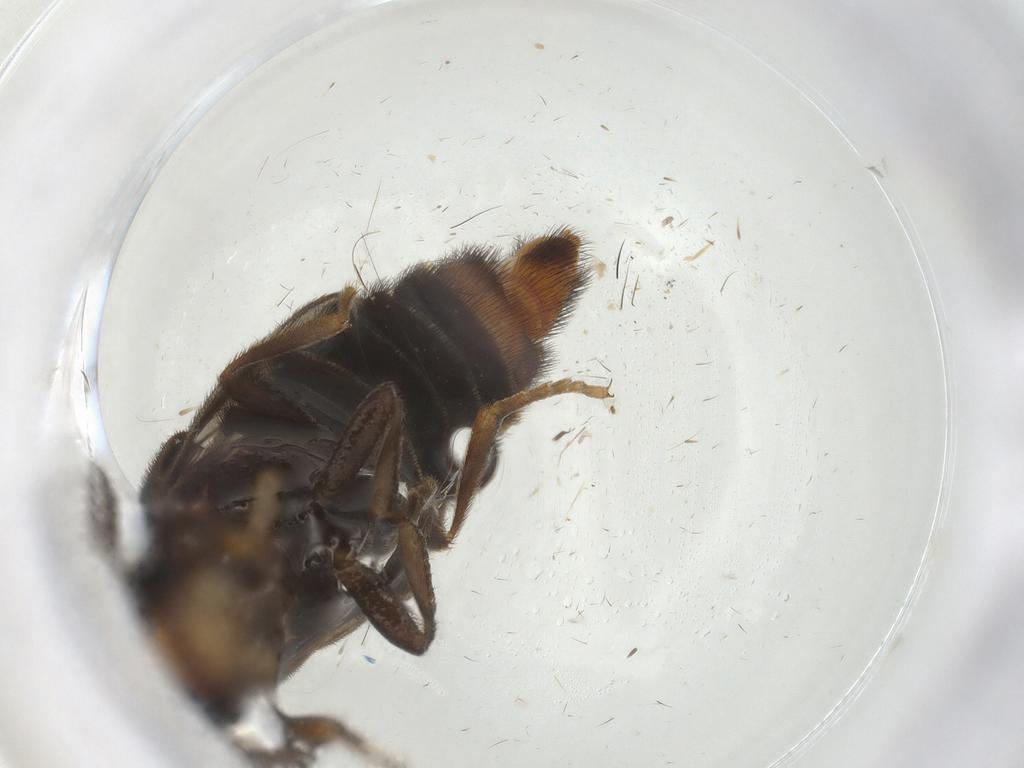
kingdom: Animalia
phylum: Arthropoda
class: Insecta
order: Coleoptera
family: Phengodidae
